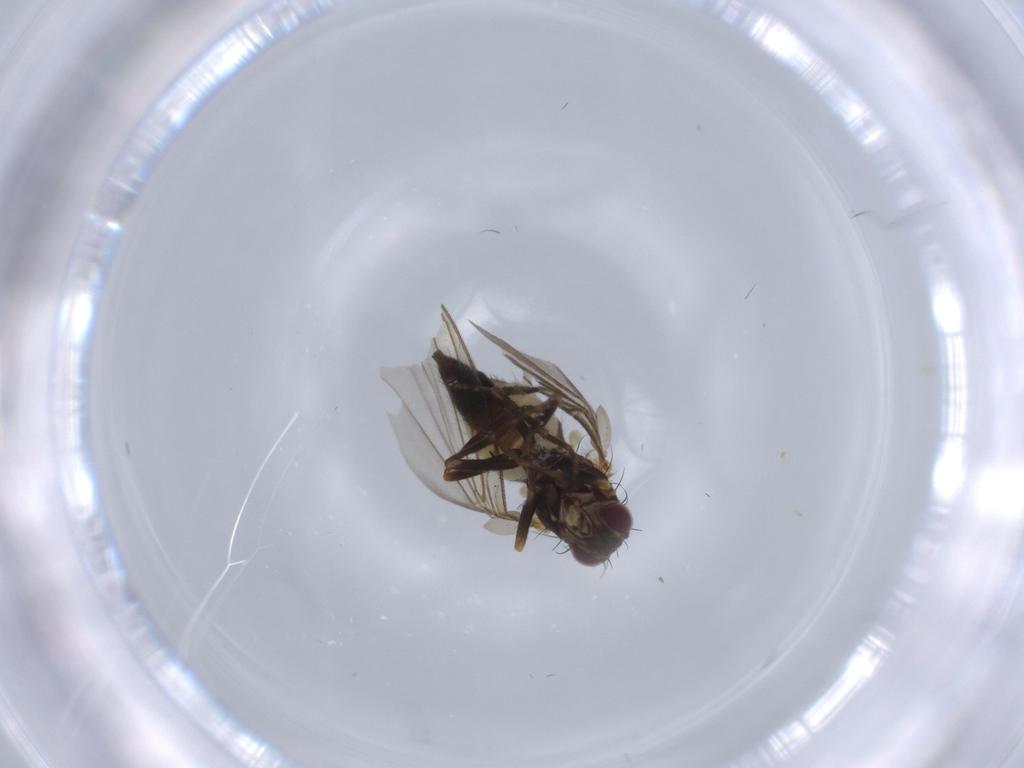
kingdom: Animalia
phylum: Arthropoda
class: Insecta
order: Diptera
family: Agromyzidae
